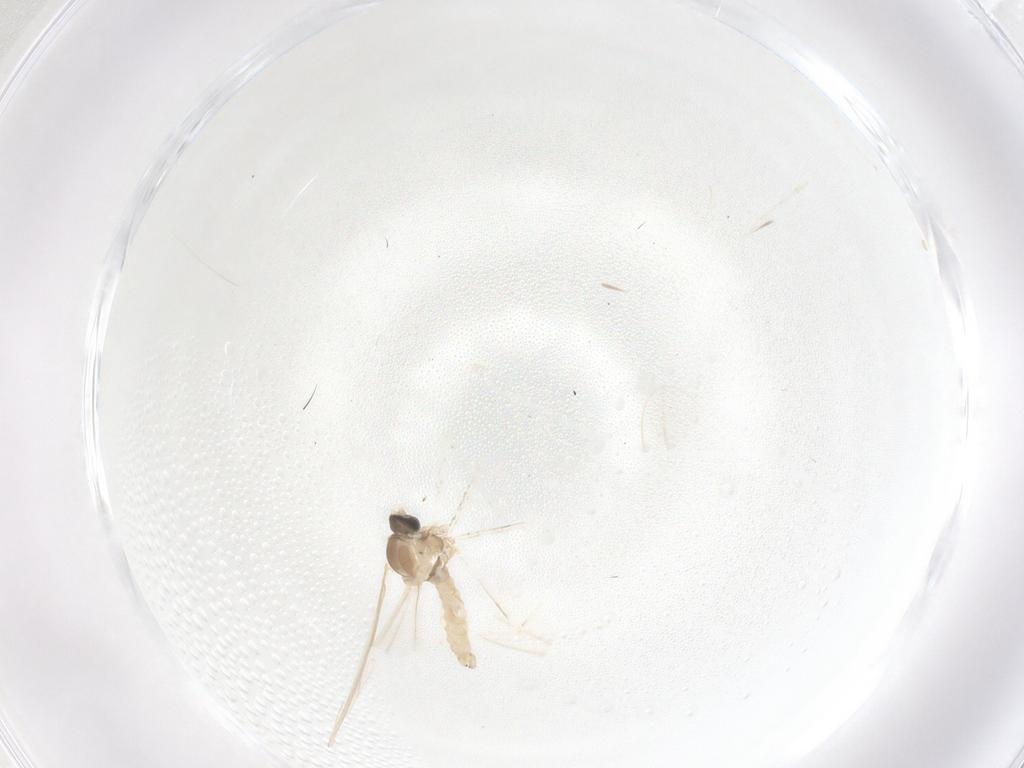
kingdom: Animalia
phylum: Arthropoda
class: Insecta
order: Diptera
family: Cecidomyiidae
